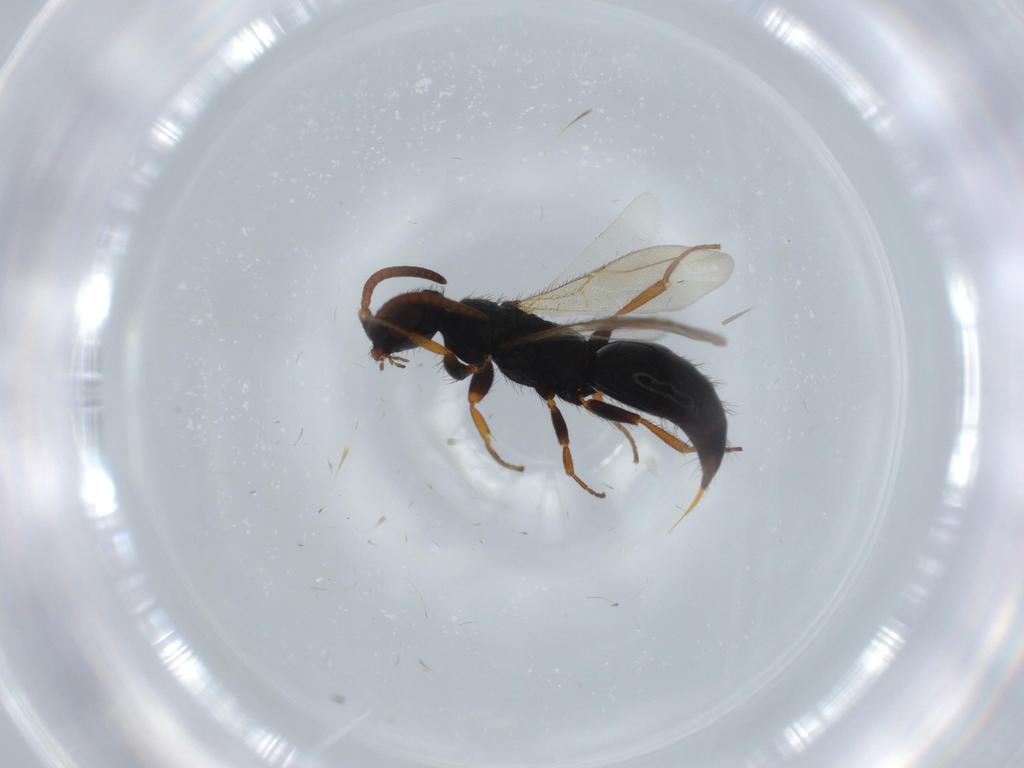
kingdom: Animalia
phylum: Arthropoda
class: Insecta
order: Hymenoptera
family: Bethylidae
